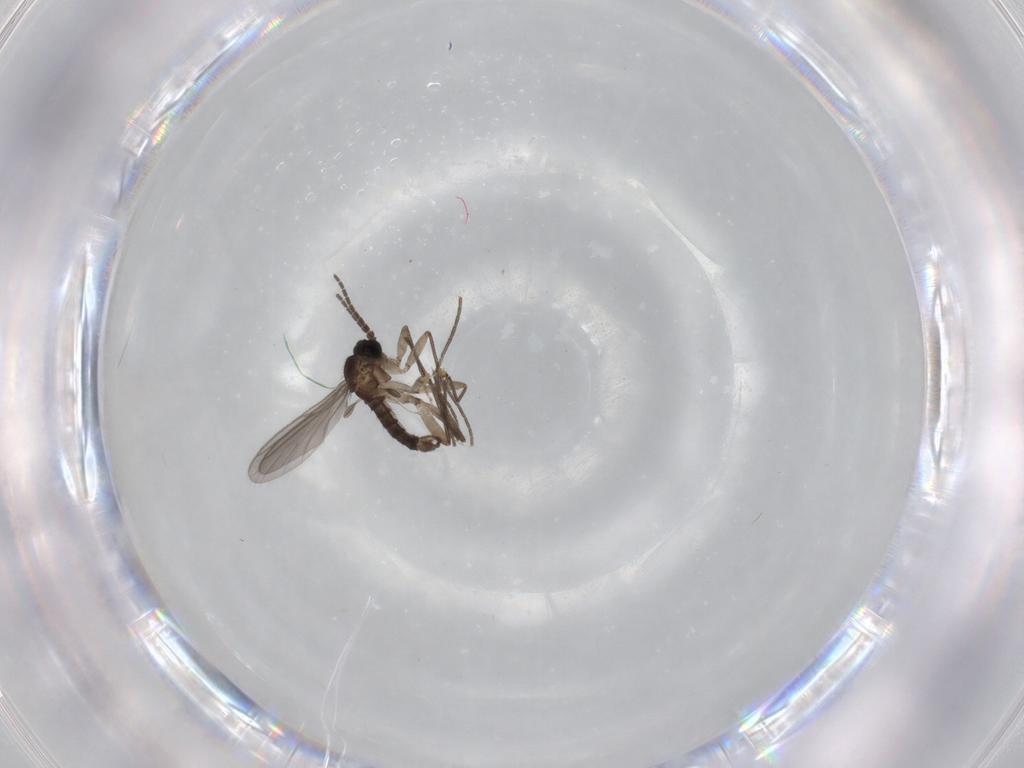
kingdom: Animalia
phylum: Arthropoda
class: Insecta
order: Diptera
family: Sciaridae
